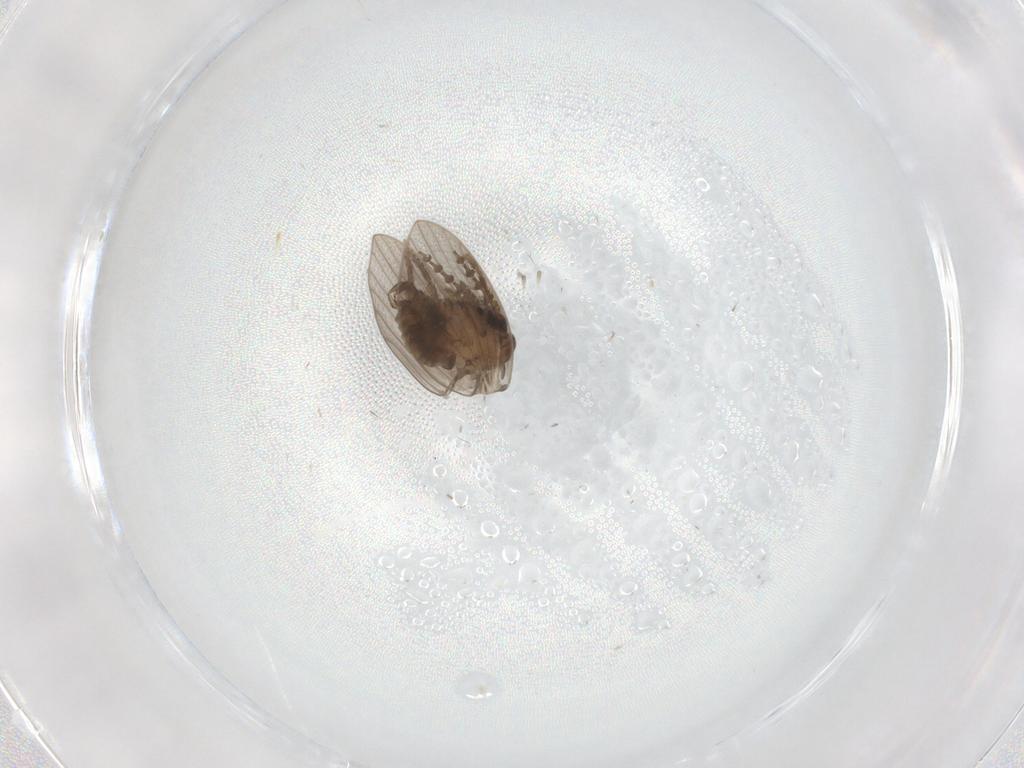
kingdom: Animalia
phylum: Arthropoda
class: Insecta
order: Diptera
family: Psychodidae
